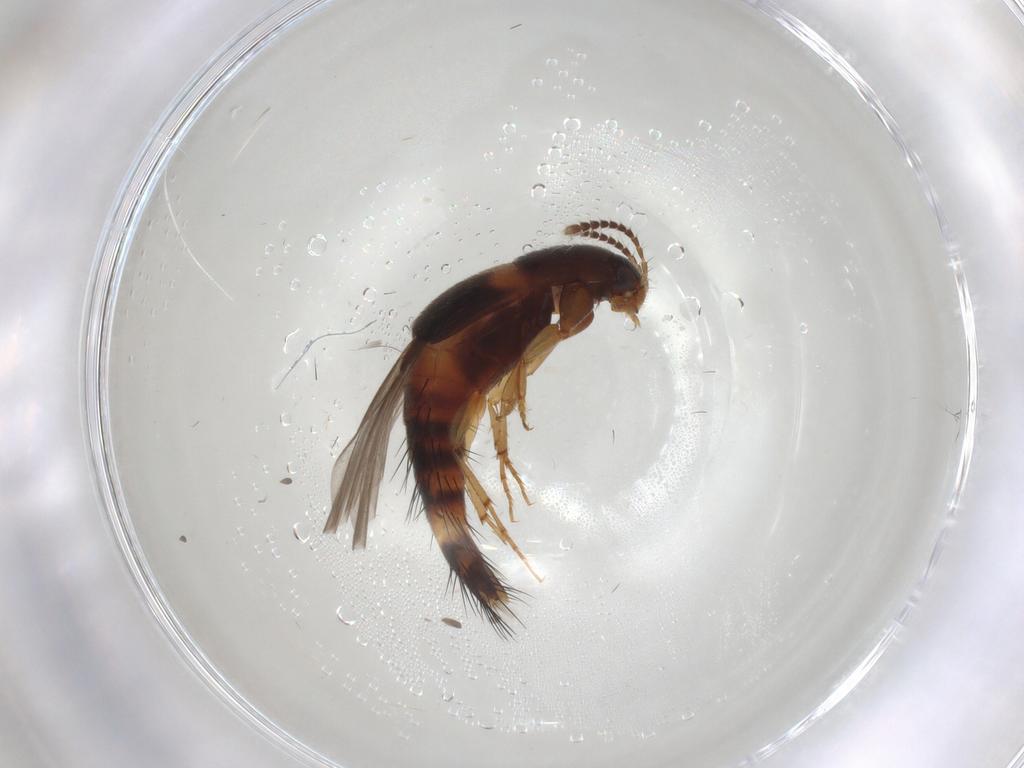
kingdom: Animalia
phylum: Arthropoda
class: Insecta
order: Coleoptera
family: Staphylinidae
